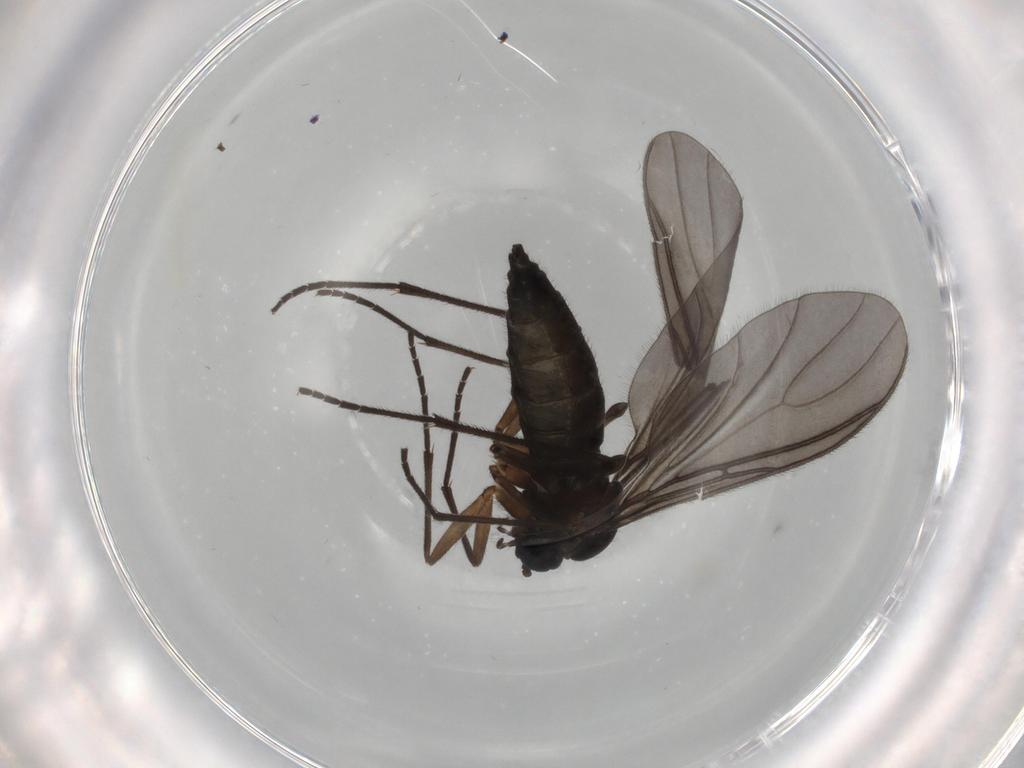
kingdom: Animalia
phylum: Arthropoda
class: Insecta
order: Diptera
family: Sciaridae
